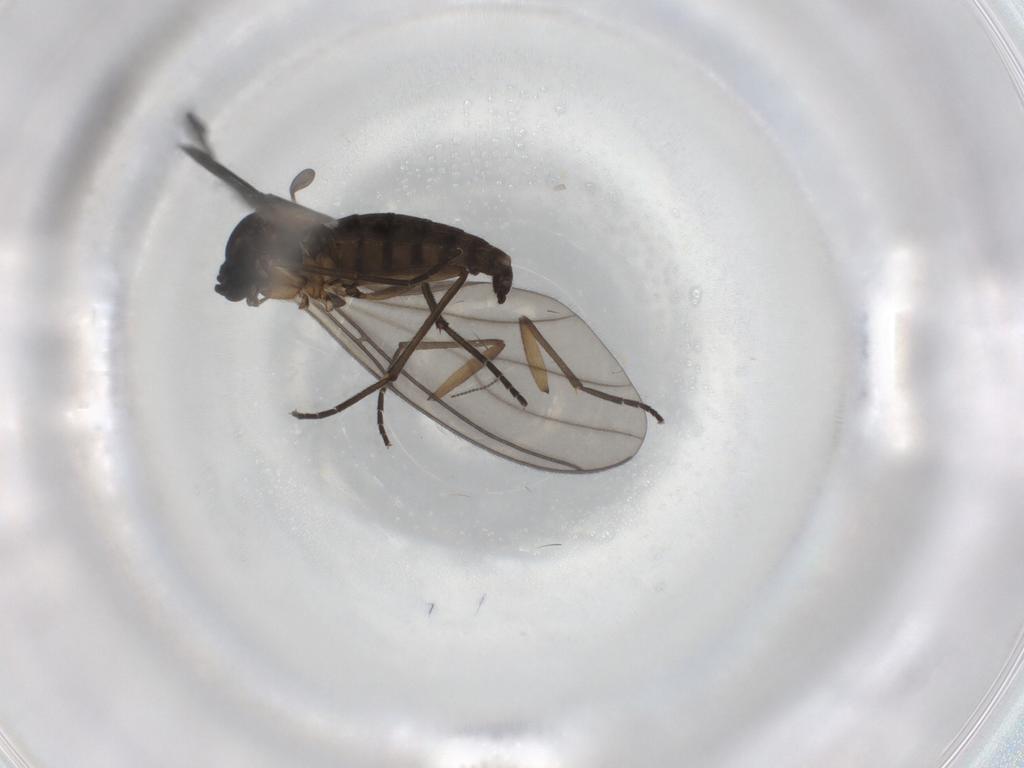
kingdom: Animalia
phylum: Arthropoda
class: Insecta
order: Diptera
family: Sciaridae
